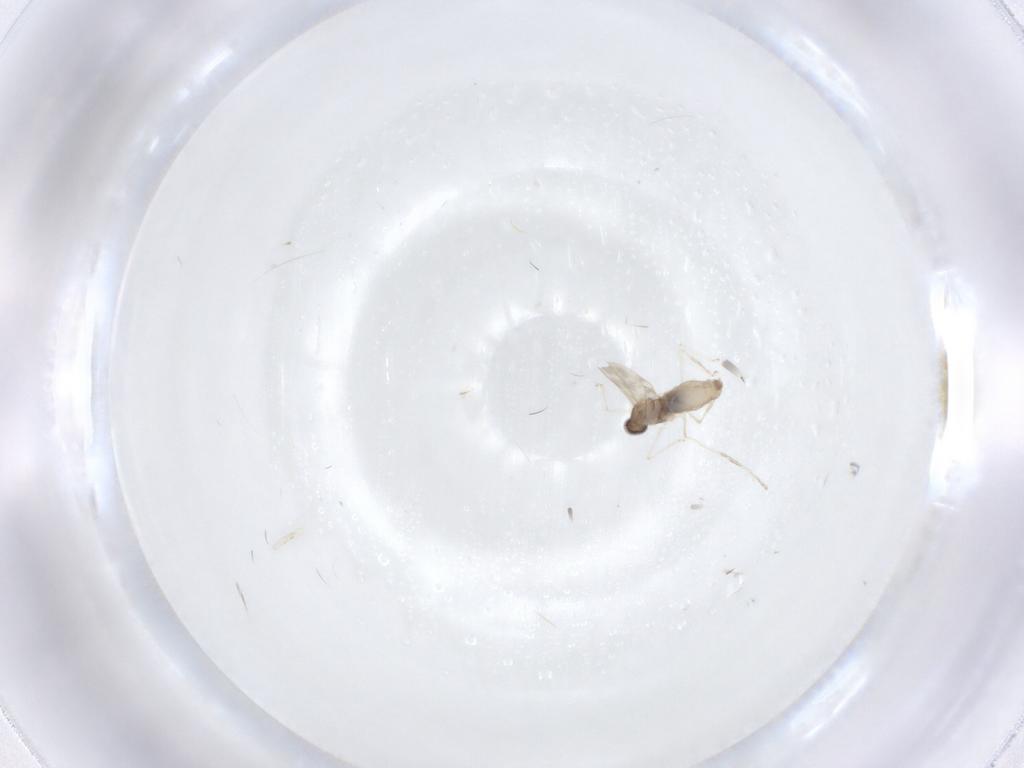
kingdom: Animalia
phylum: Arthropoda
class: Insecta
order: Diptera
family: Cecidomyiidae
